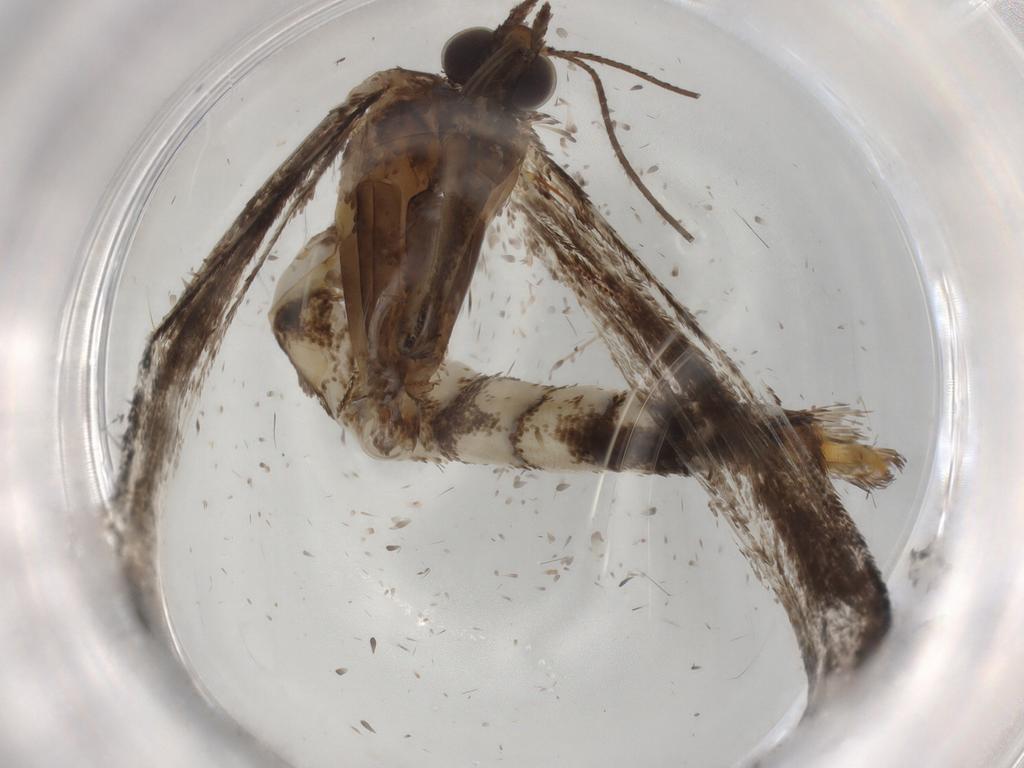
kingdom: Animalia
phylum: Arthropoda
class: Insecta
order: Lepidoptera
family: Pterophoridae
